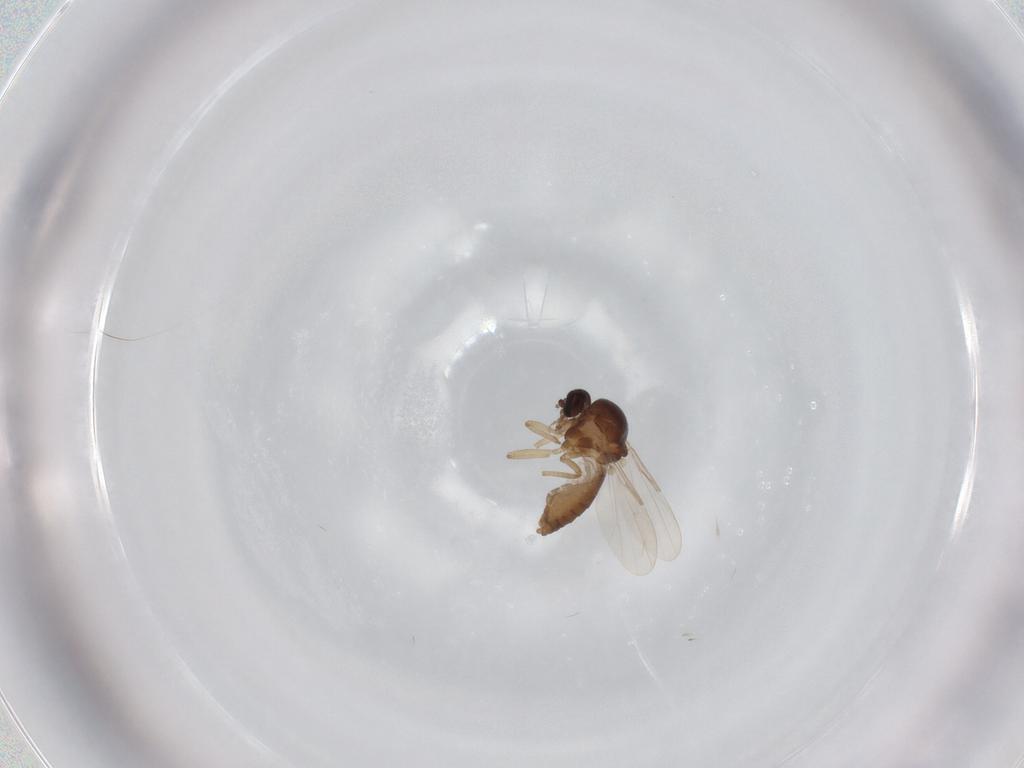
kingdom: Animalia
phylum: Arthropoda
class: Insecta
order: Diptera
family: Ceratopogonidae
